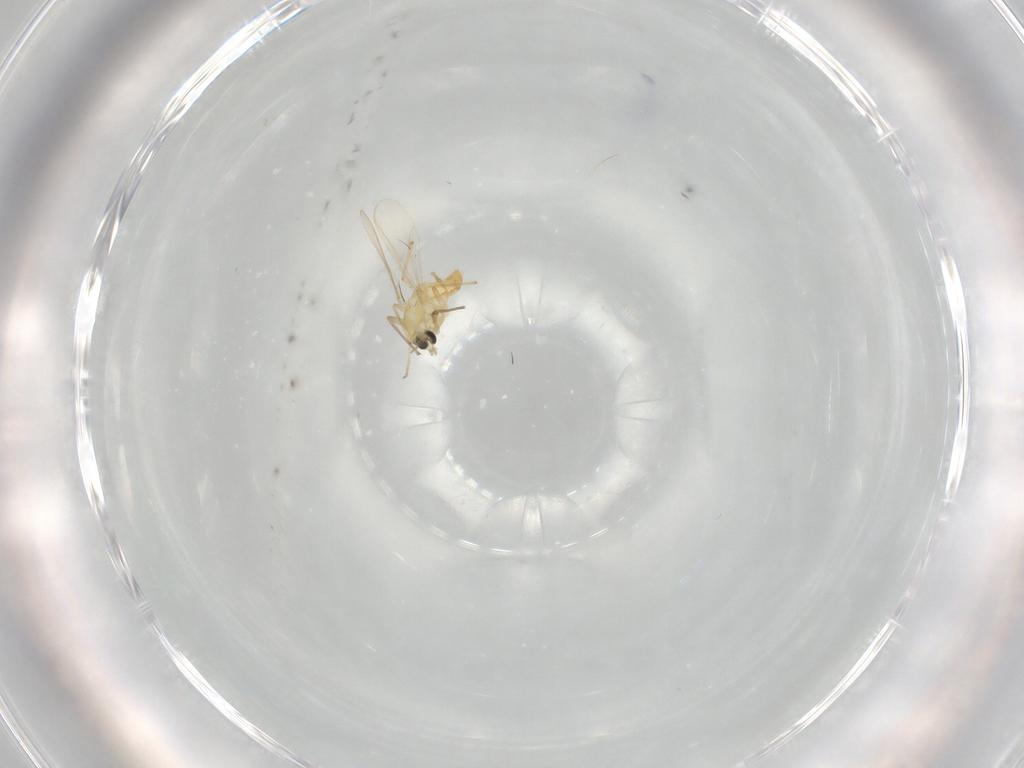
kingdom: Animalia
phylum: Arthropoda
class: Insecta
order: Diptera
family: Chironomidae
